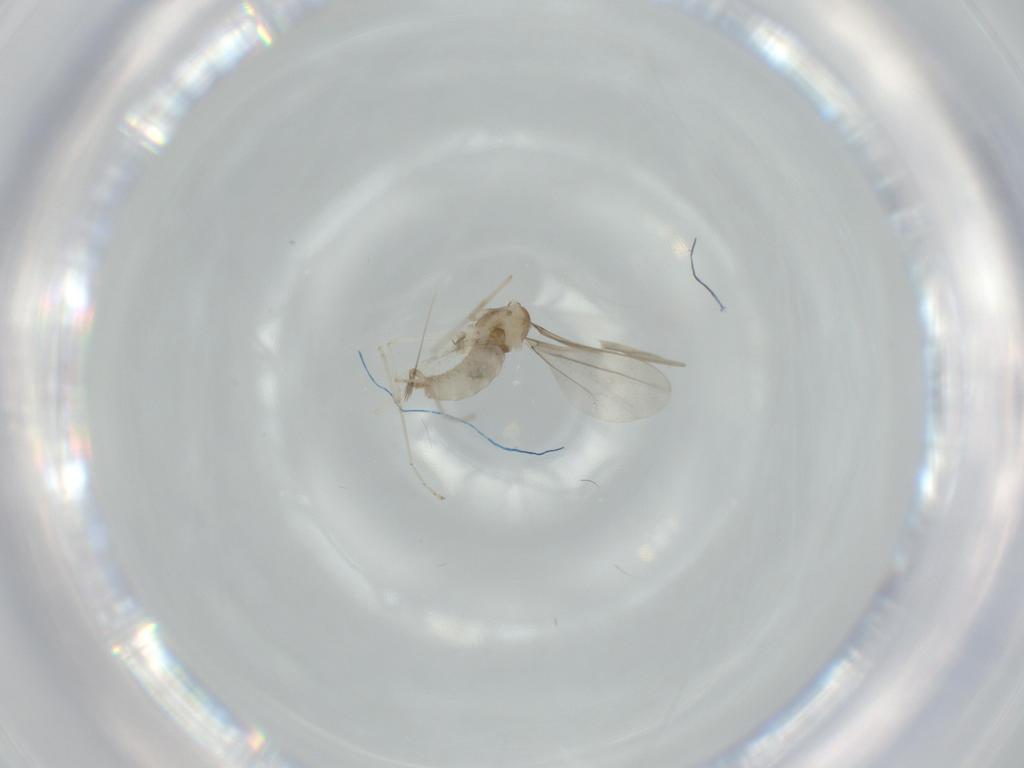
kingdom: Animalia
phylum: Arthropoda
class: Insecta
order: Diptera
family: Cecidomyiidae
